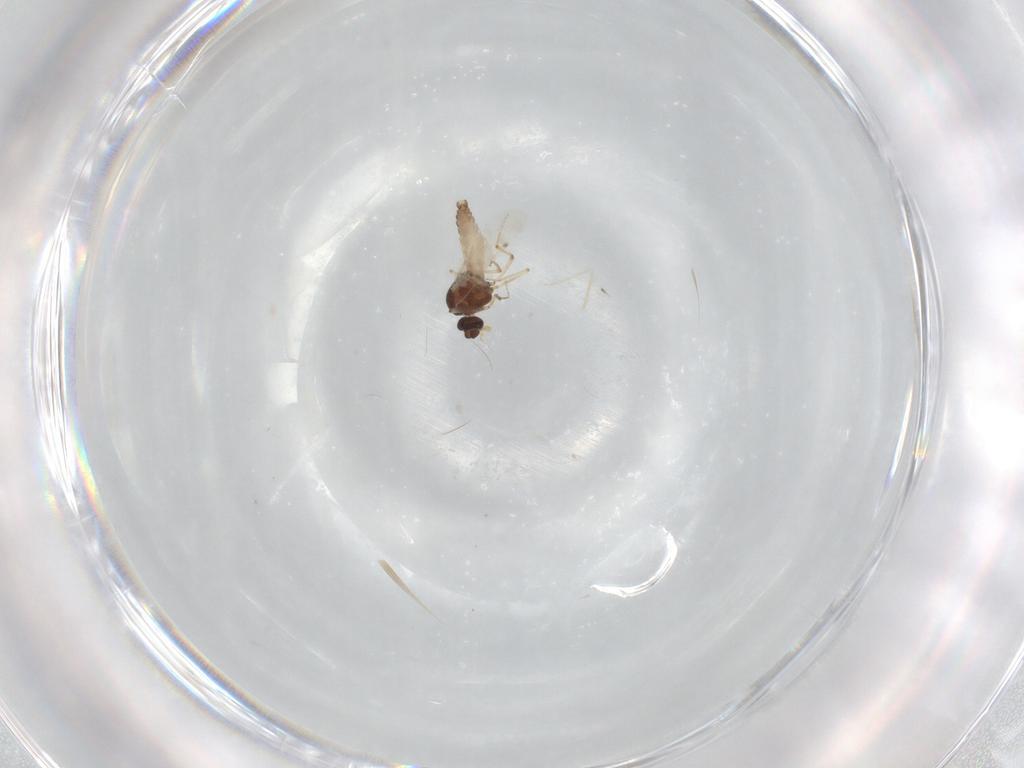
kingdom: Animalia
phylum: Arthropoda
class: Insecta
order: Diptera
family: Cecidomyiidae
